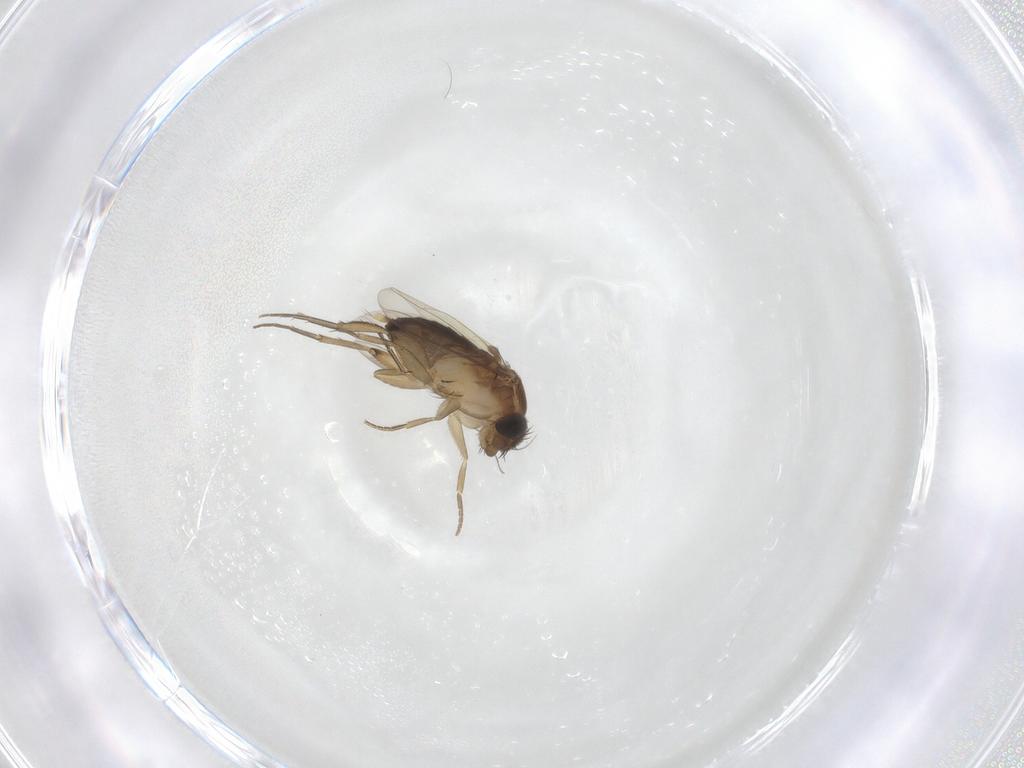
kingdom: Animalia
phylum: Arthropoda
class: Insecta
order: Diptera
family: Phoridae
